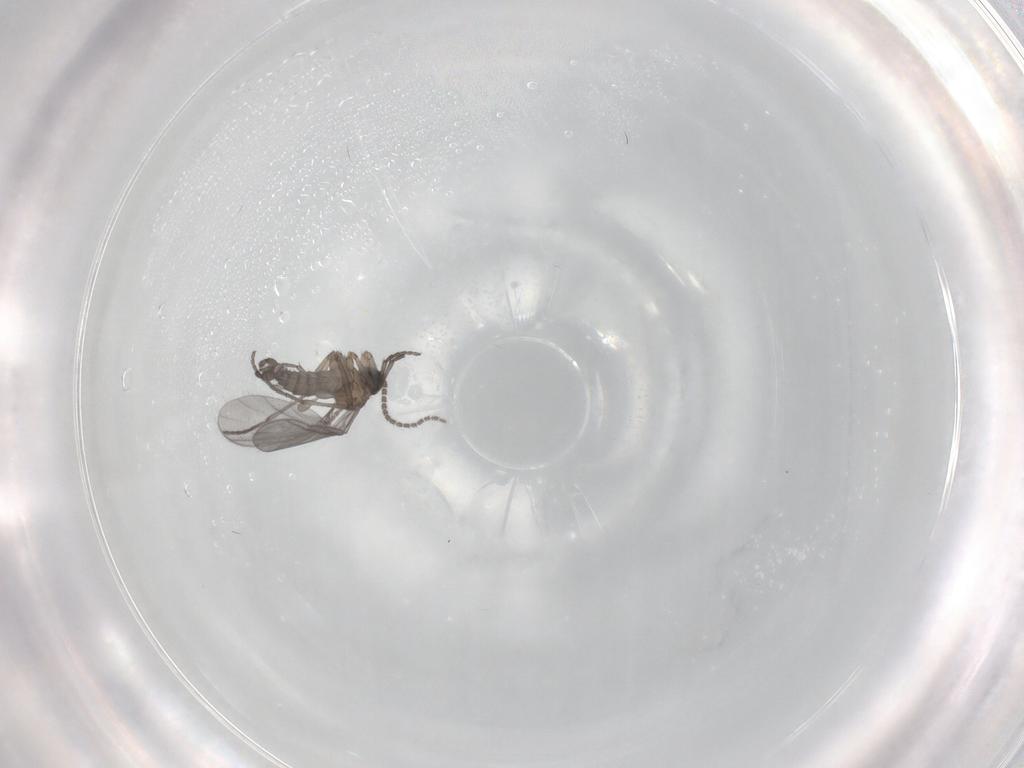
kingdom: Animalia
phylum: Arthropoda
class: Insecta
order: Diptera
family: Sciaridae
